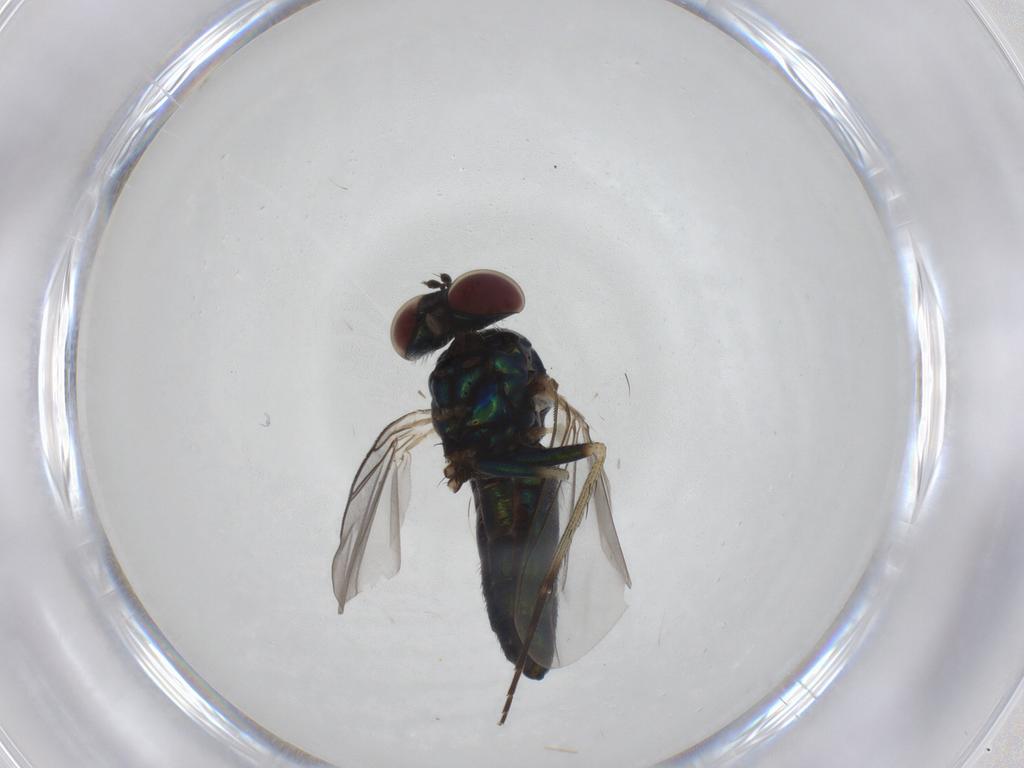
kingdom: Animalia
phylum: Arthropoda
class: Insecta
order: Diptera
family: Dolichopodidae
